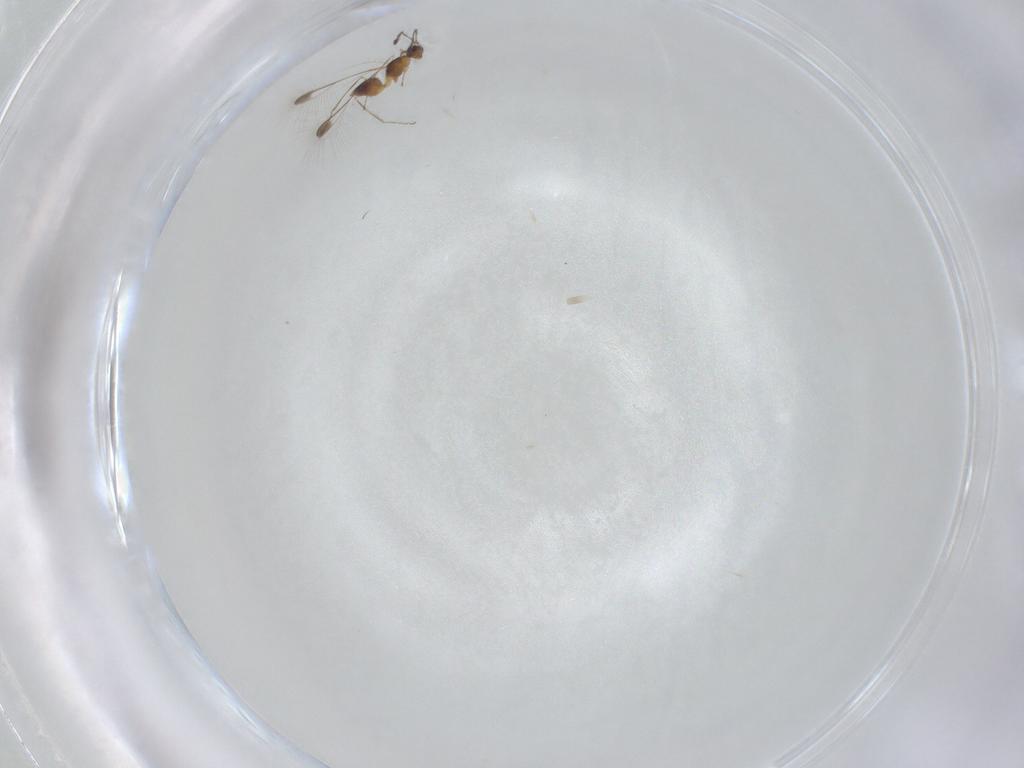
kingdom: Animalia
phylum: Arthropoda
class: Insecta
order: Hymenoptera
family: Mymaridae
